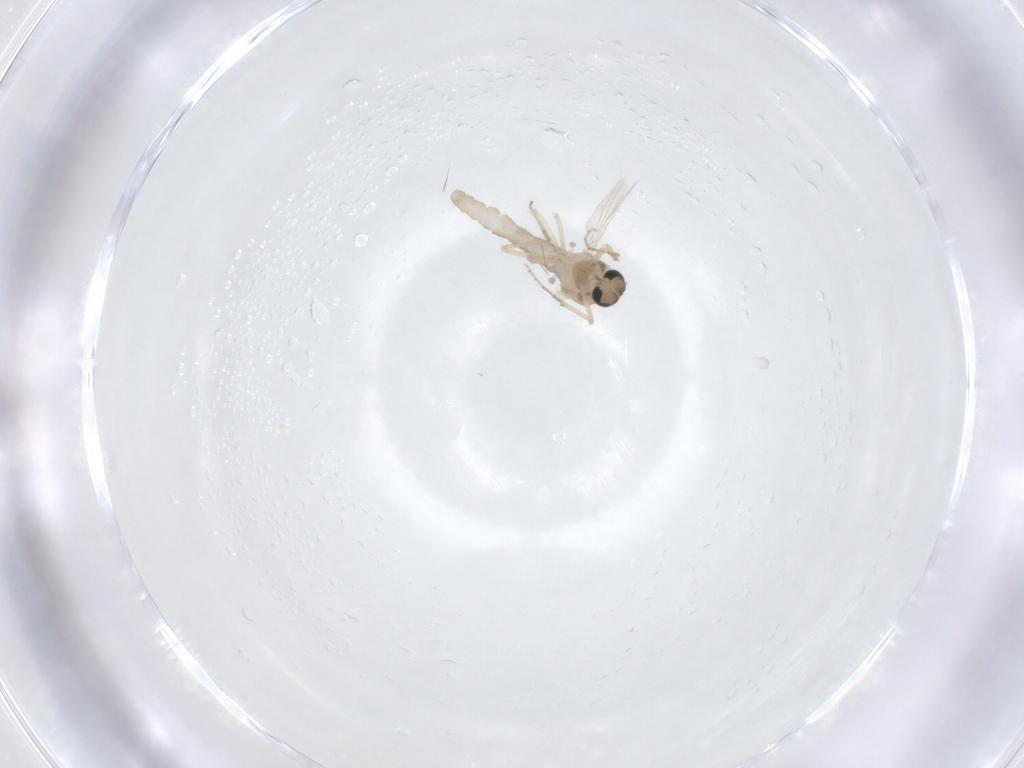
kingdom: Animalia
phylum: Arthropoda
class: Insecta
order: Diptera
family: Ceratopogonidae
